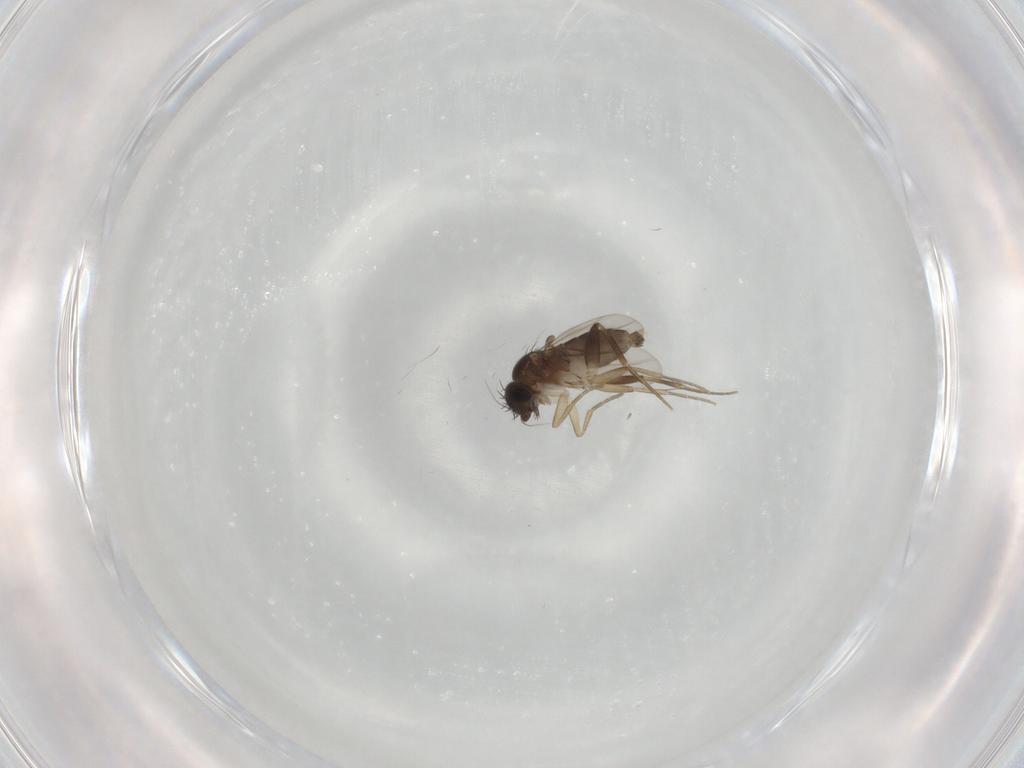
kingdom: Animalia
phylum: Arthropoda
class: Insecta
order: Diptera
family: Phoridae
